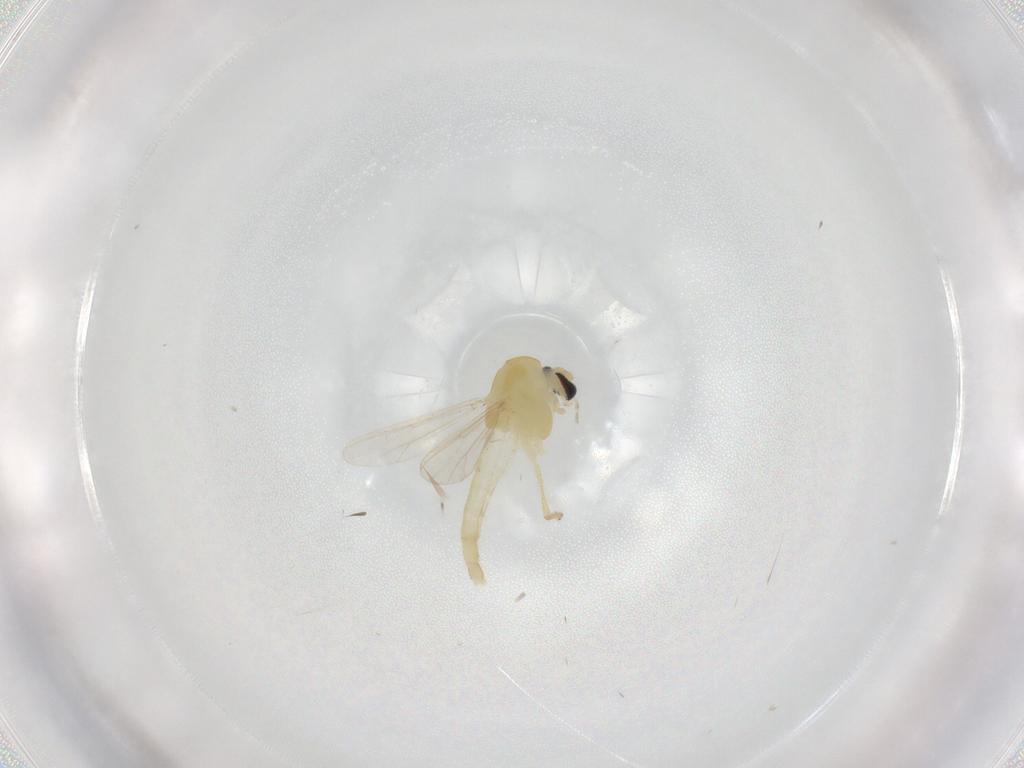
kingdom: Animalia
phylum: Arthropoda
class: Insecta
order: Diptera
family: Chironomidae
